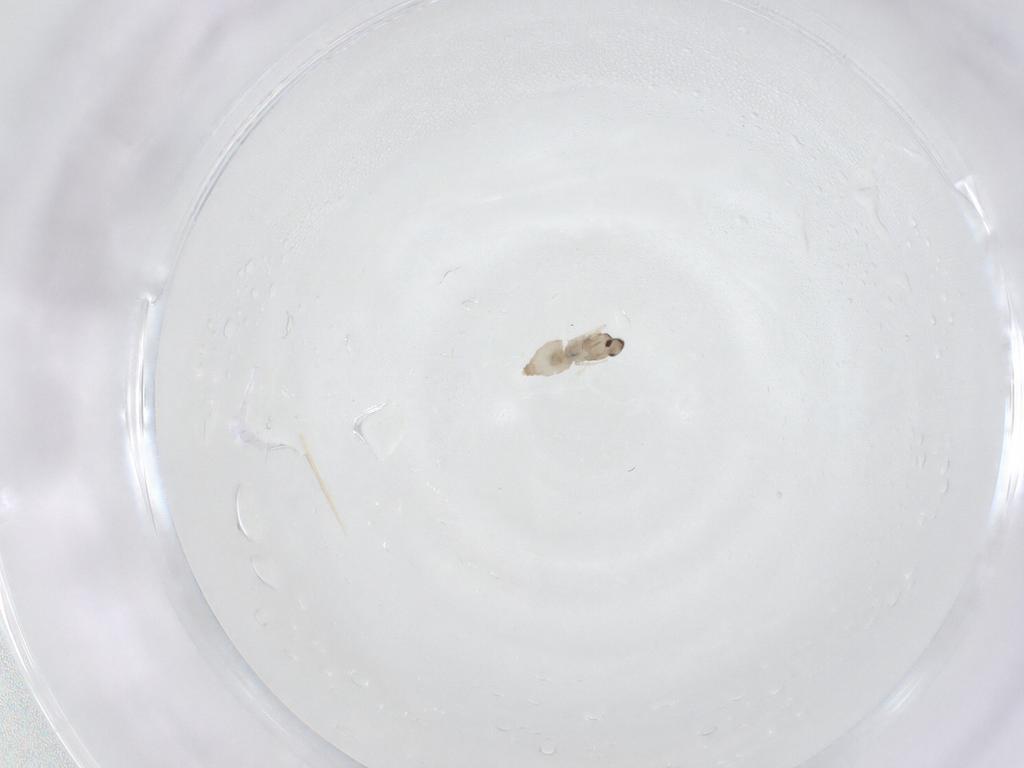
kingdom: Animalia
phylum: Arthropoda
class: Insecta
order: Diptera
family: Cecidomyiidae
